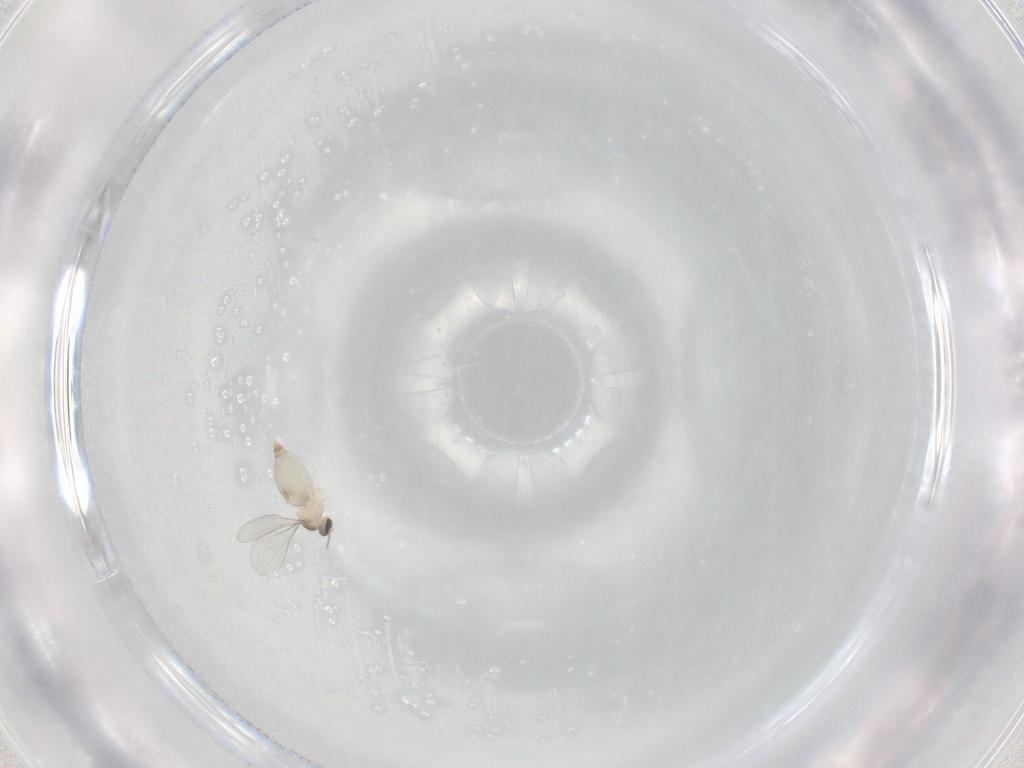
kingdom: Animalia
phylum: Arthropoda
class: Insecta
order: Diptera
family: Cecidomyiidae
